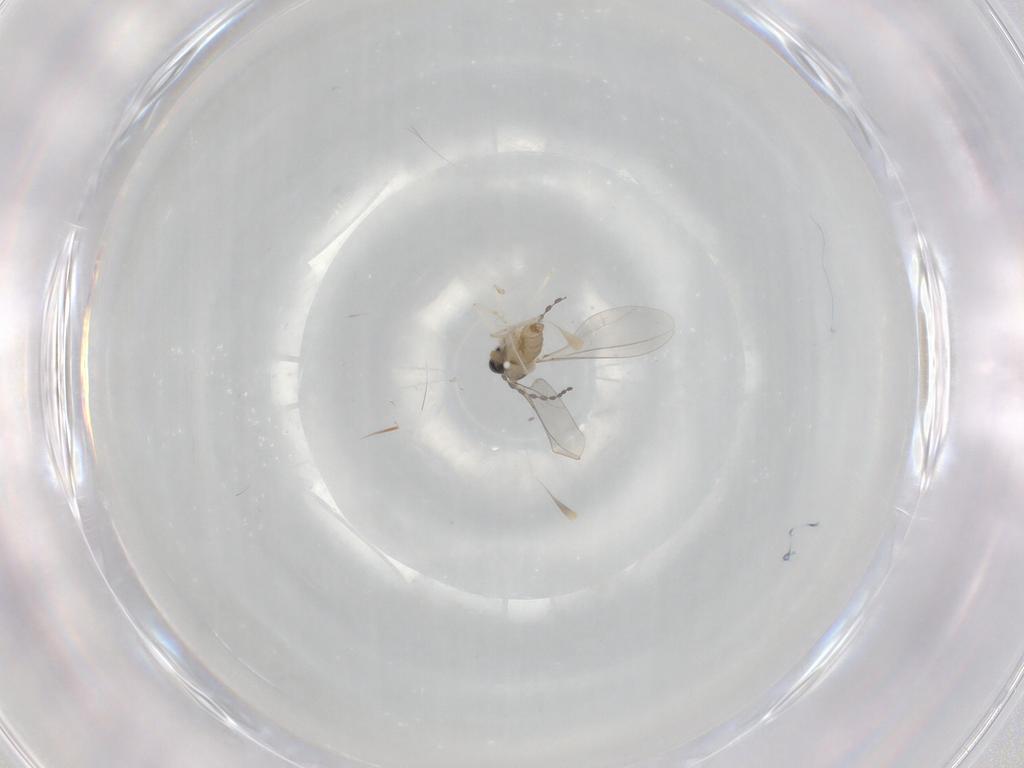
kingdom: Animalia
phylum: Arthropoda
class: Insecta
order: Diptera
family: Cecidomyiidae
